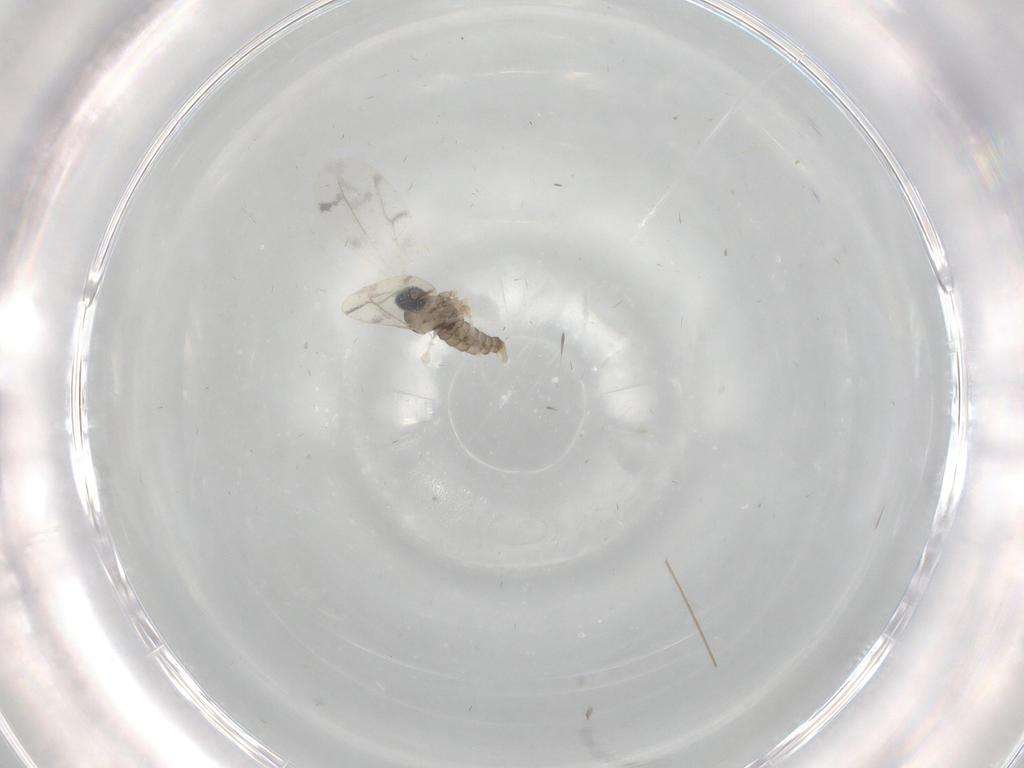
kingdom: Animalia
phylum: Arthropoda
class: Insecta
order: Diptera
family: Cecidomyiidae
